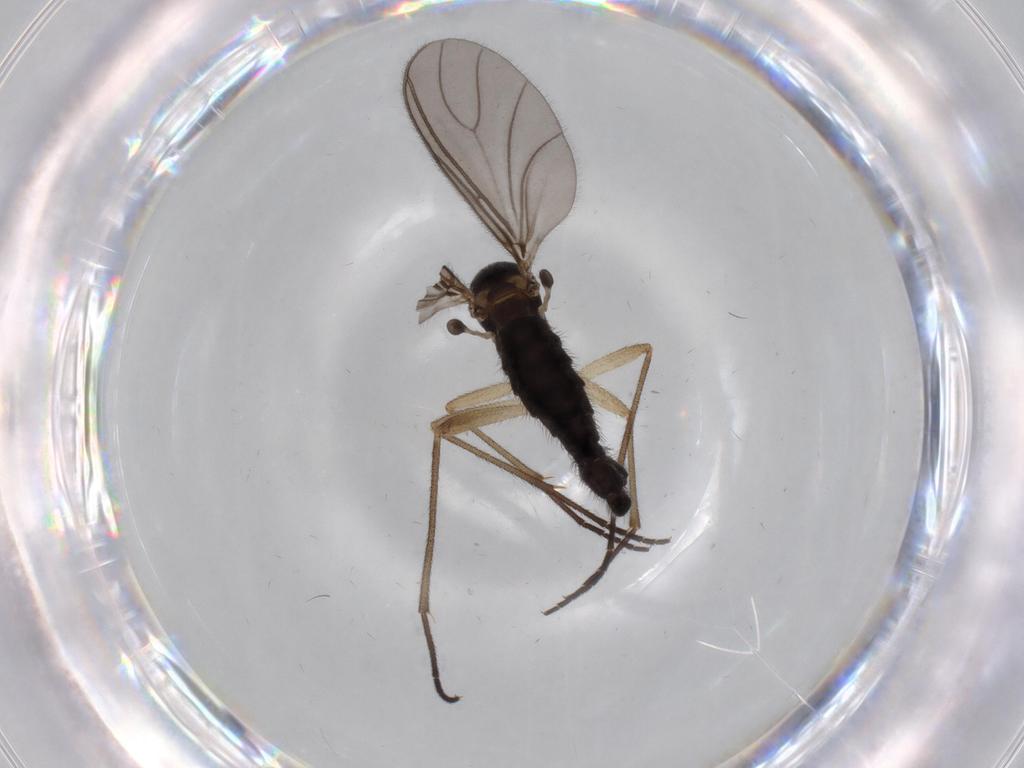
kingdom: Animalia
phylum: Arthropoda
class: Insecta
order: Diptera
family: Sciaridae
